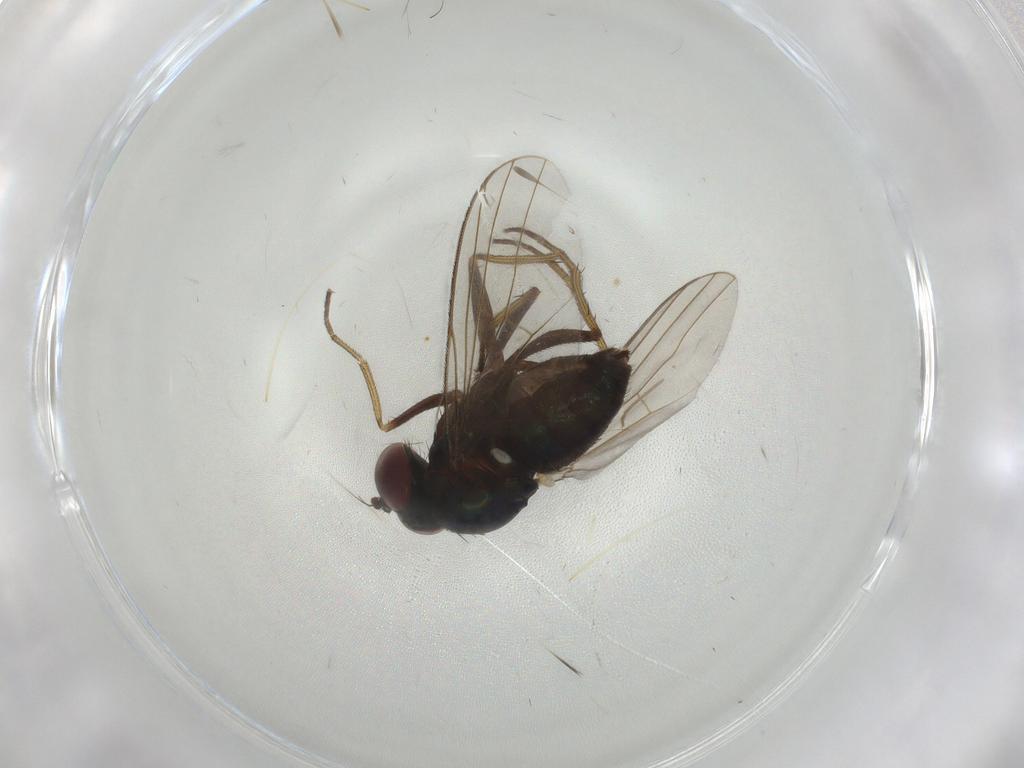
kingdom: Animalia
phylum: Arthropoda
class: Insecta
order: Diptera
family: Dolichopodidae
